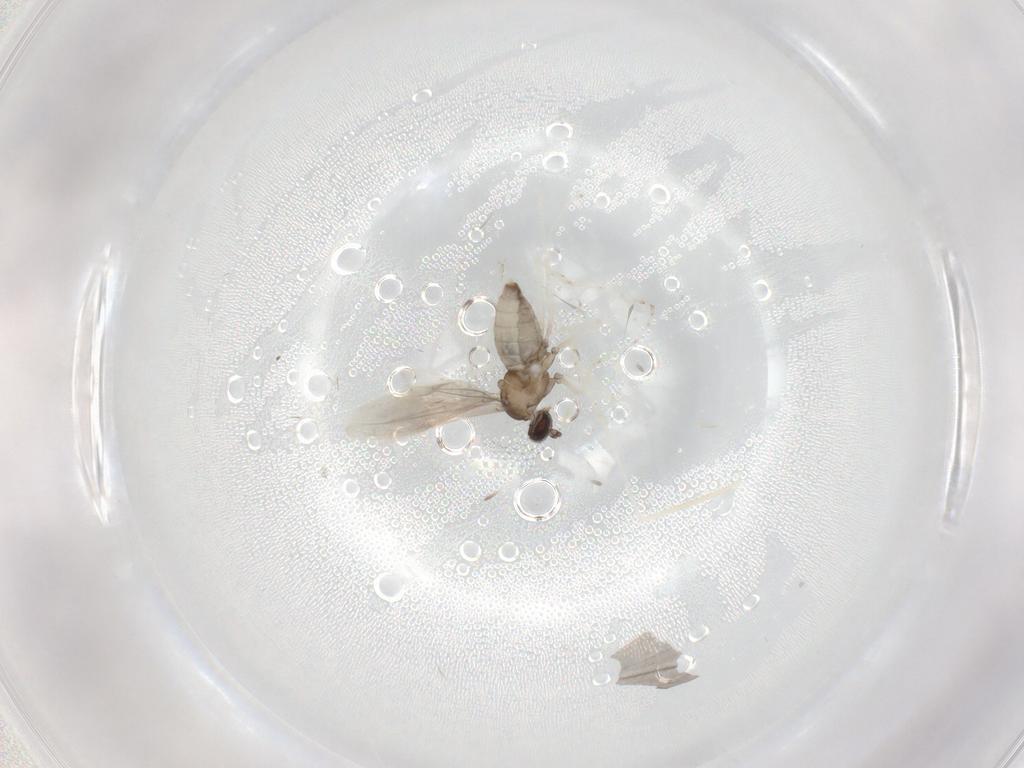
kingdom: Animalia
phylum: Arthropoda
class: Insecta
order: Diptera
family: Cecidomyiidae
